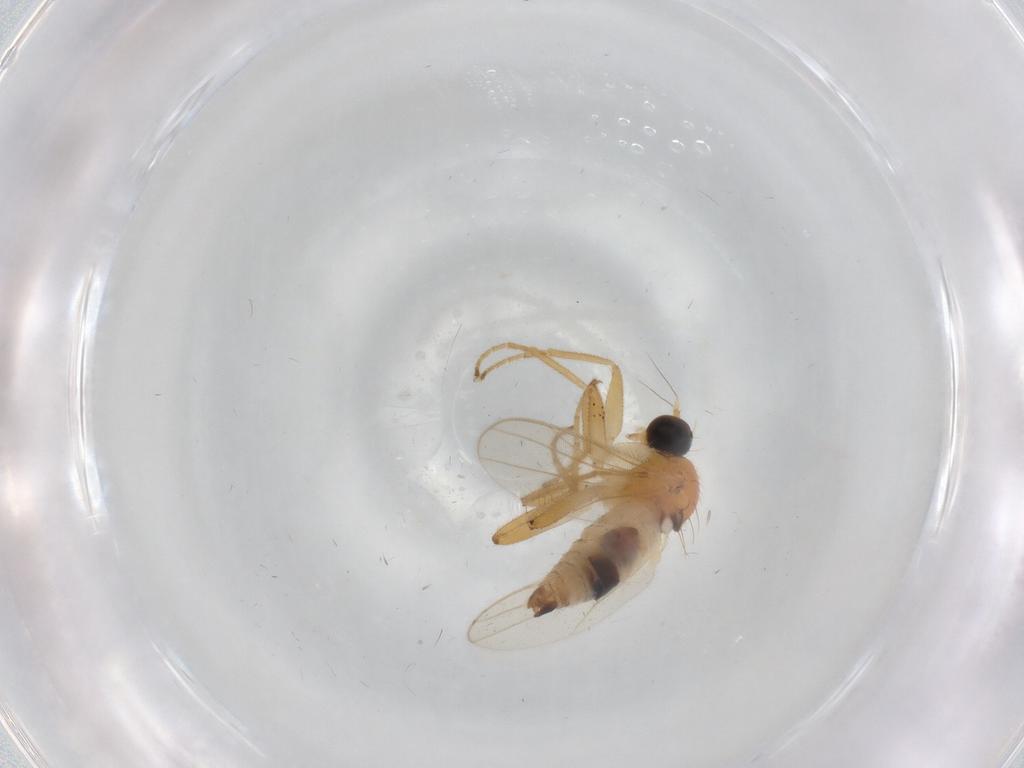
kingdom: Animalia
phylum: Arthropoda
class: Insecta
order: Diptera
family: Hybotidae
